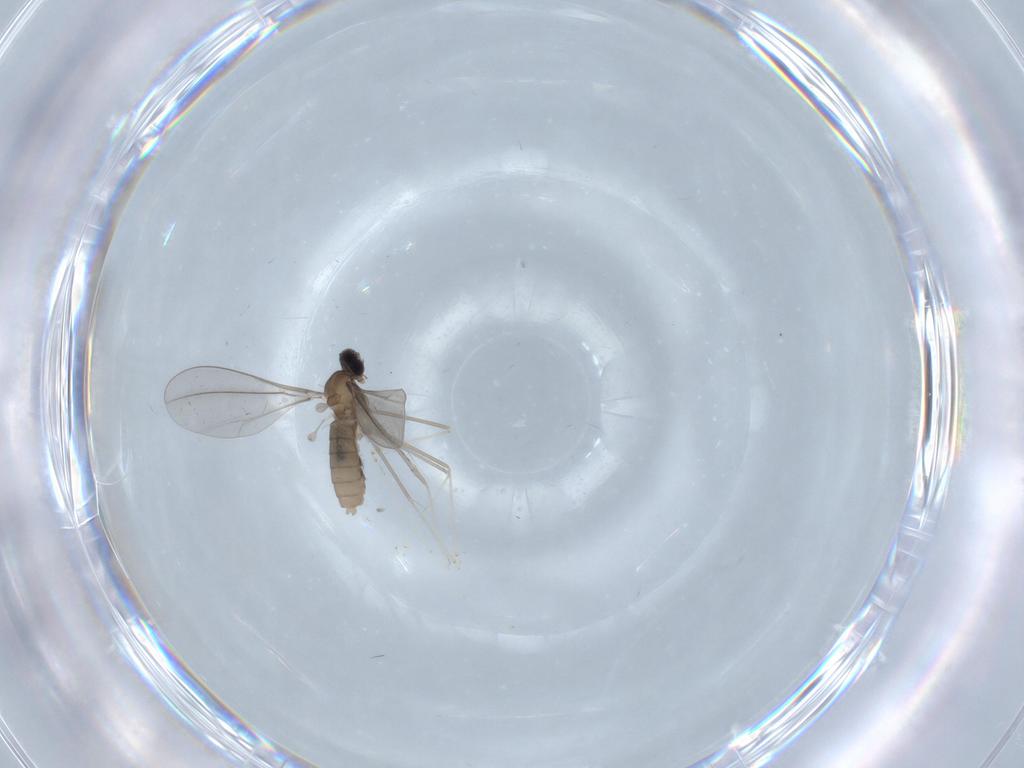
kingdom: Animalia
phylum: Arthropoda
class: Insecta
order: Diptera
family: Cecidomyiidae
